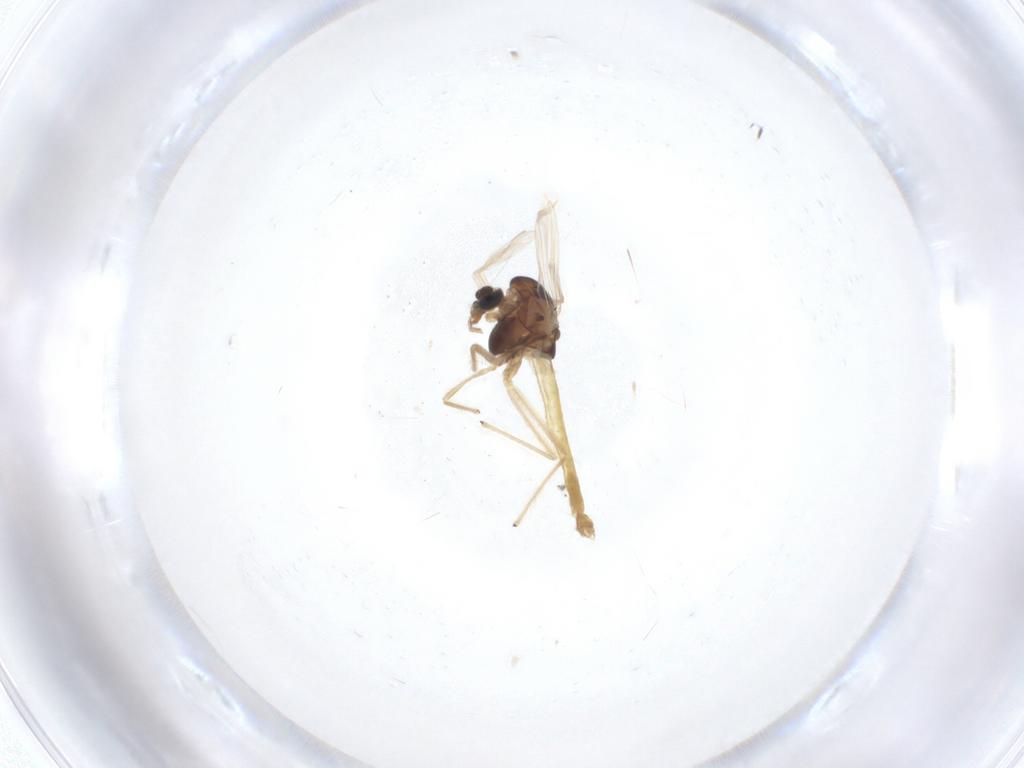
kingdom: Animalia
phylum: Arthropoda
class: Insecta
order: Diptera
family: Chironomidae
